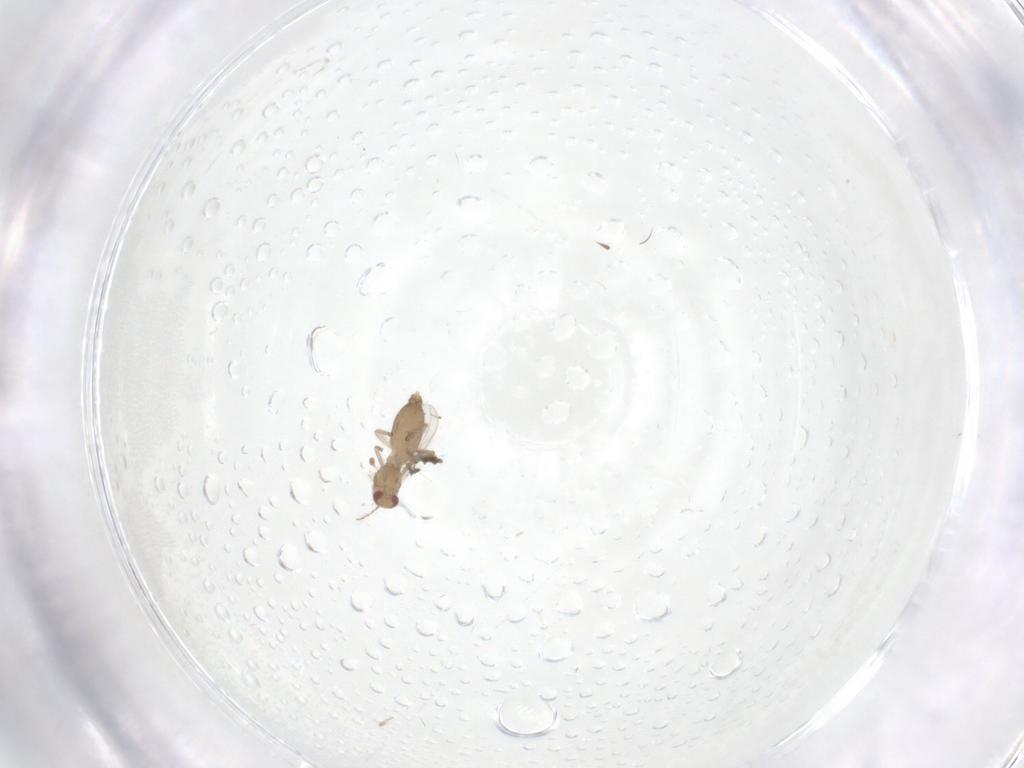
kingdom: Animalia
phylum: Arthropoda
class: Insecta
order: Diptera
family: Chironomidae
